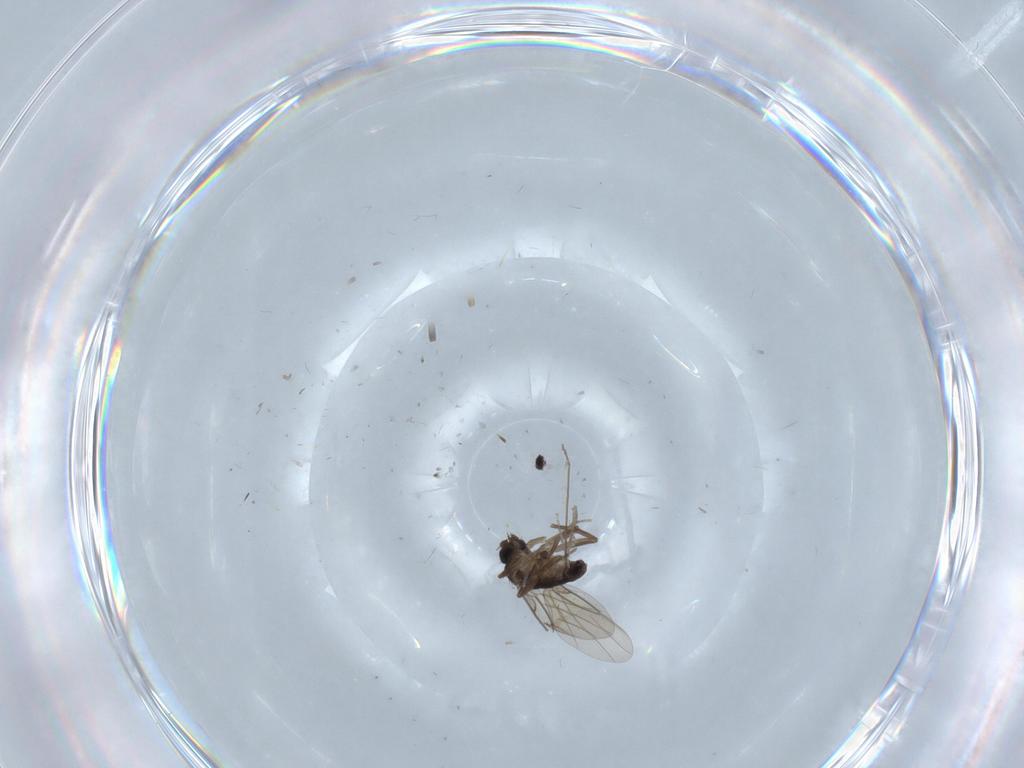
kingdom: Animalia
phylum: Arthropoda
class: Insecta
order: Diptera
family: Phoridae
